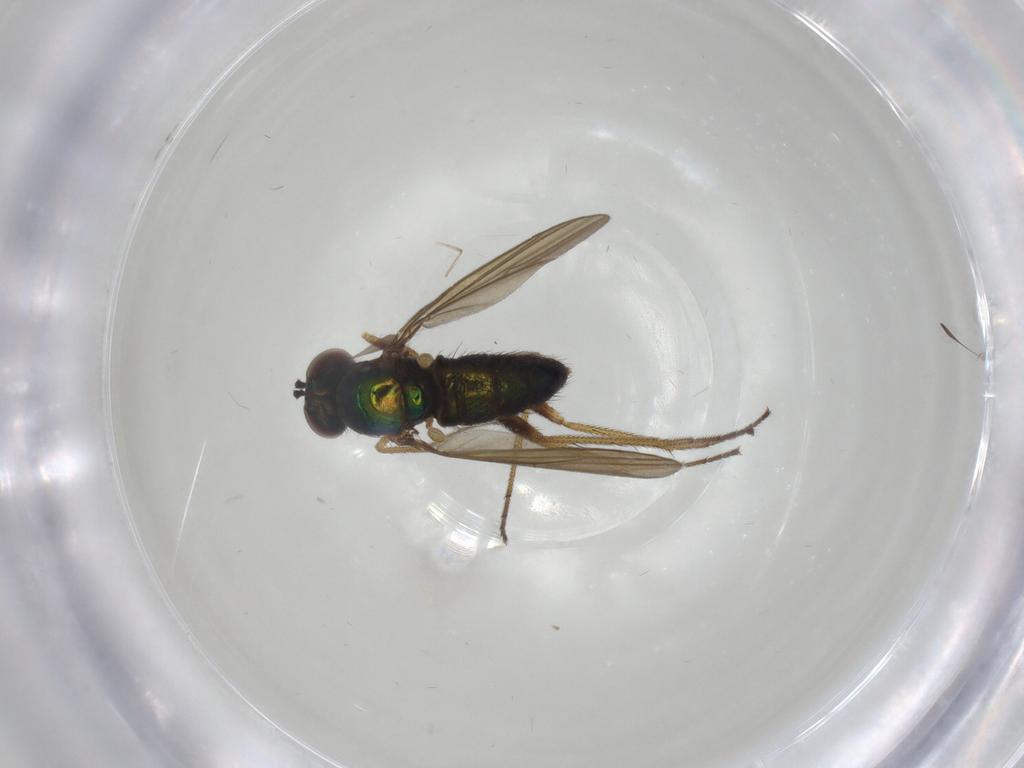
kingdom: Animalia
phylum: Arthropoda
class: Insecta
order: Diptera
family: Dolichopodidae
